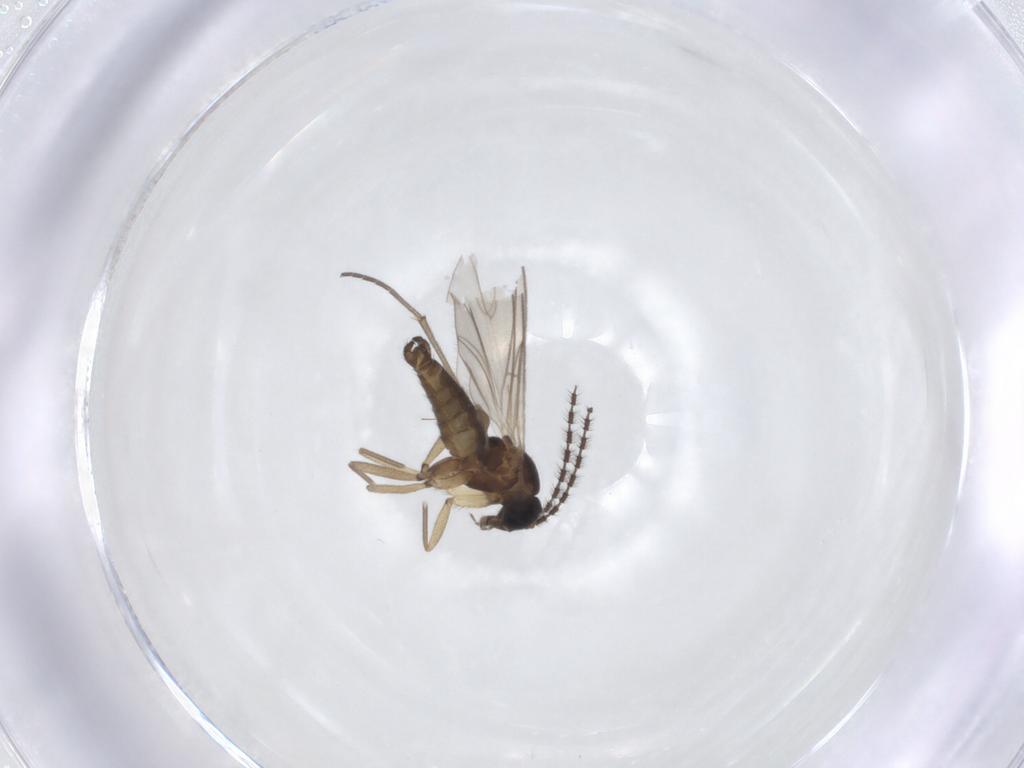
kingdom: Animalia
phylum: Arthropoda
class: Insecta
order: Diptera
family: Sciaridae
